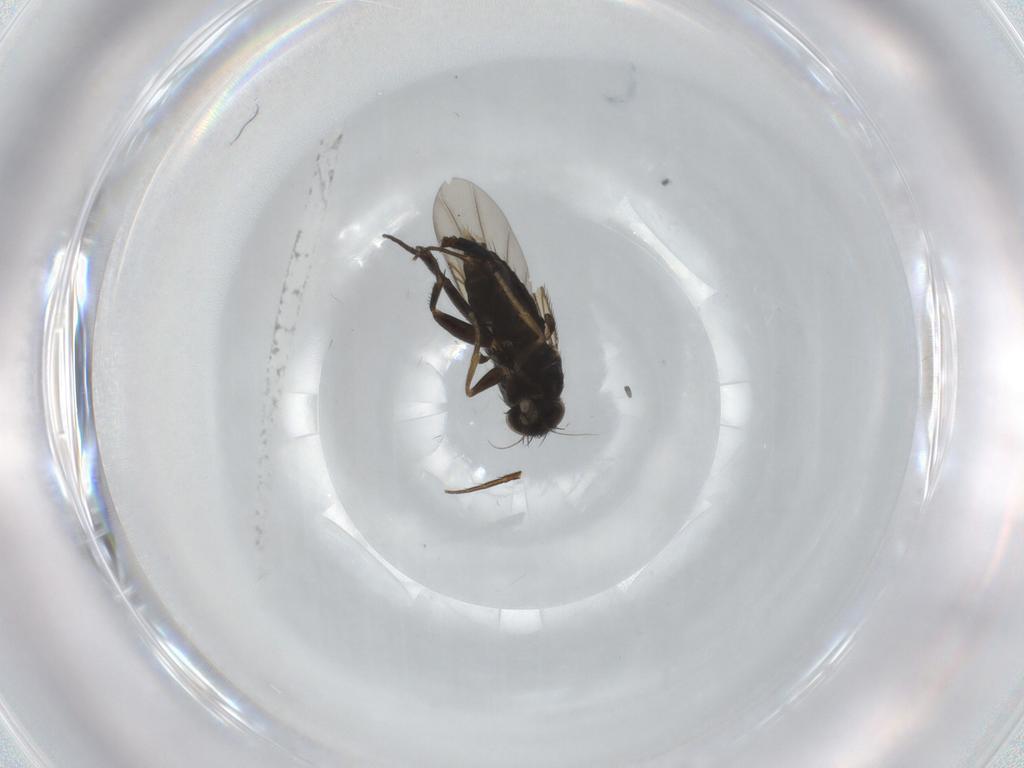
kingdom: Animalia
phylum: Arthropoda
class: Insecta
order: Diptera
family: Phoridae
